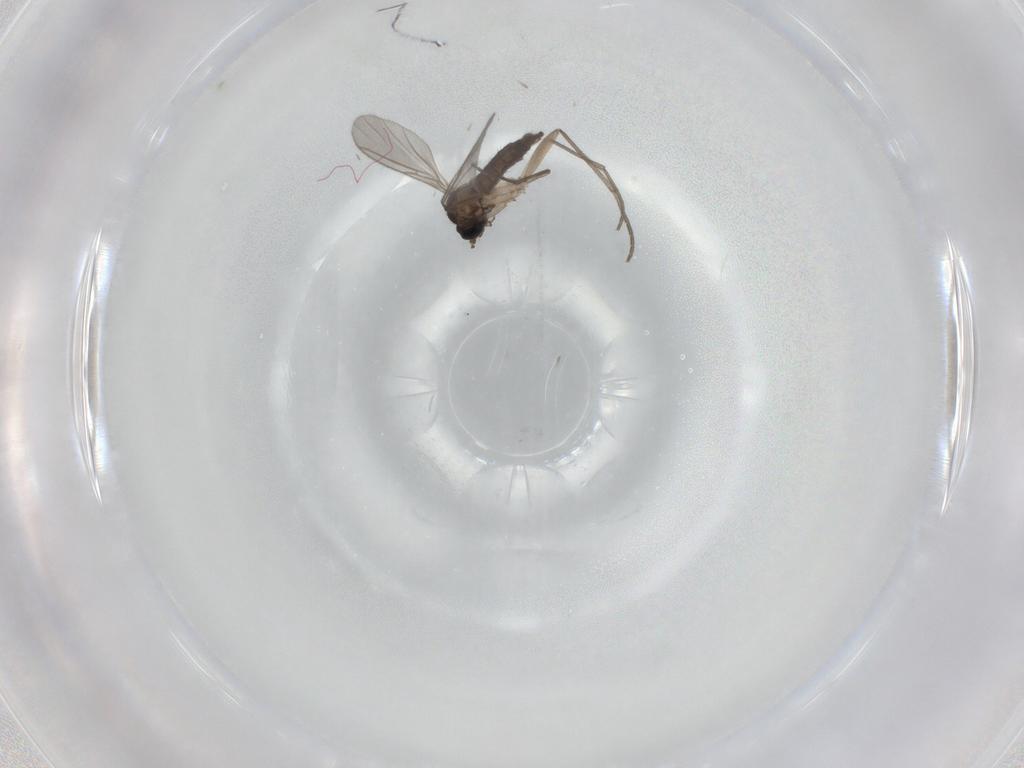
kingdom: Animalia
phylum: Arthropoda
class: Insecta
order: Diptera
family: Sciaridae
